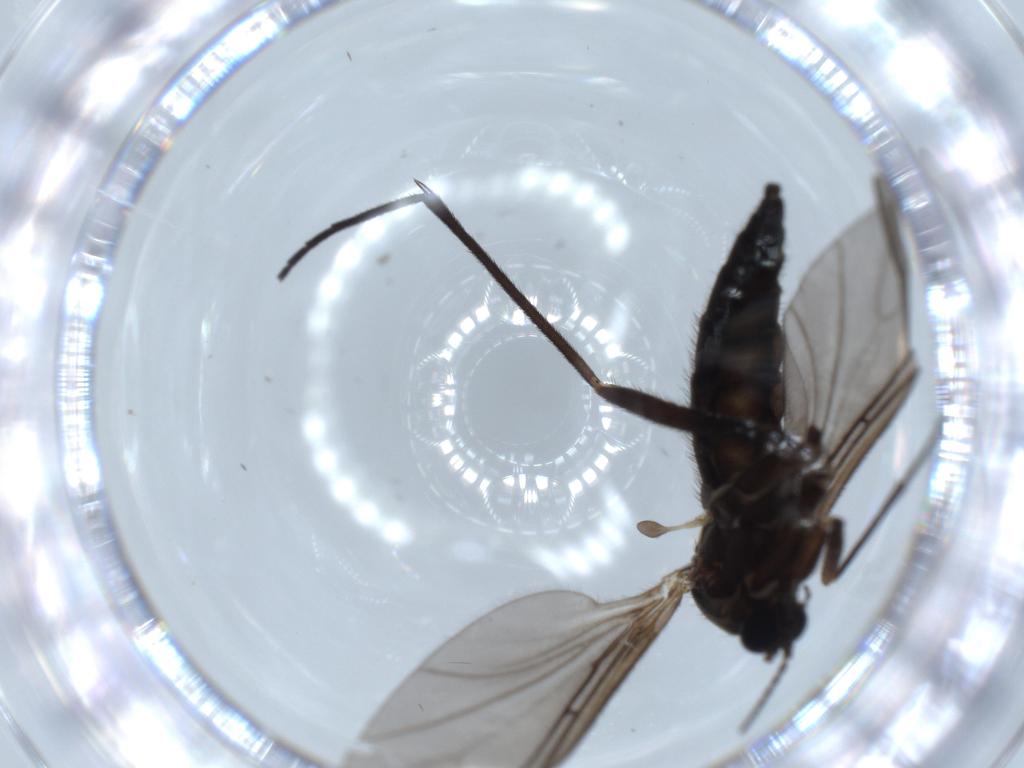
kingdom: Animalia
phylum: Arthropoda
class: Insecta
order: Diptera
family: Sciaridae
